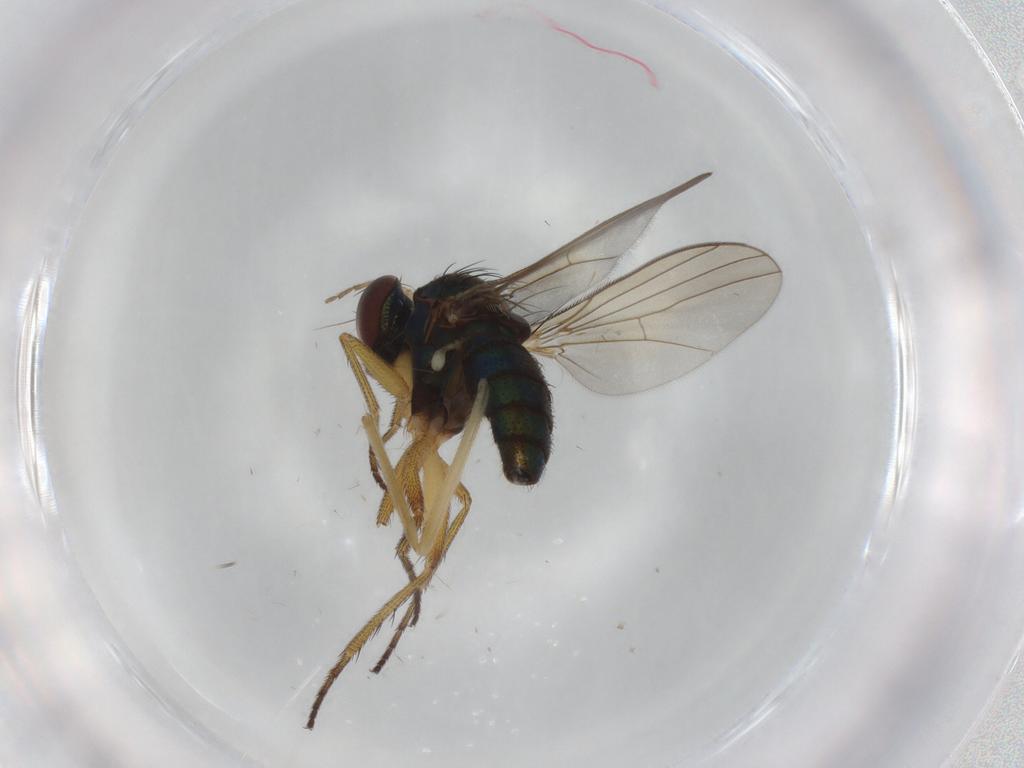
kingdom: Animalia
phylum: Arthropoda
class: Insecta
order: Diptera
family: Chironomidae
